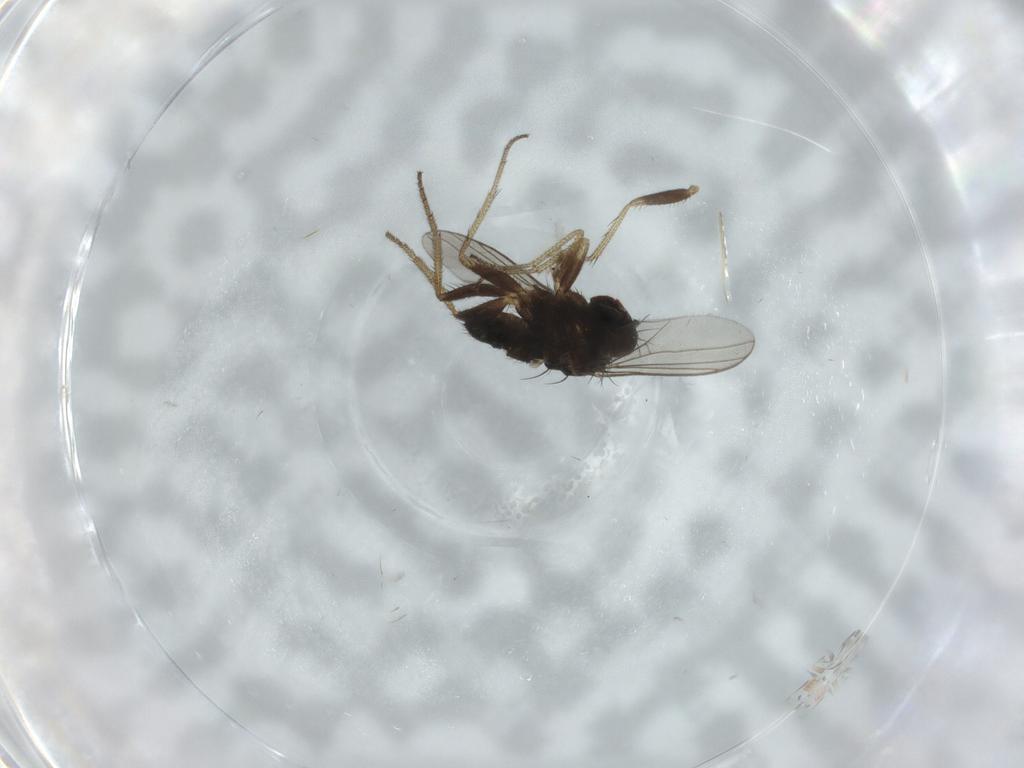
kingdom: Animalia
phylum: Arthropoda
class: Insecta
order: Diptera
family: Dolichopodidae
